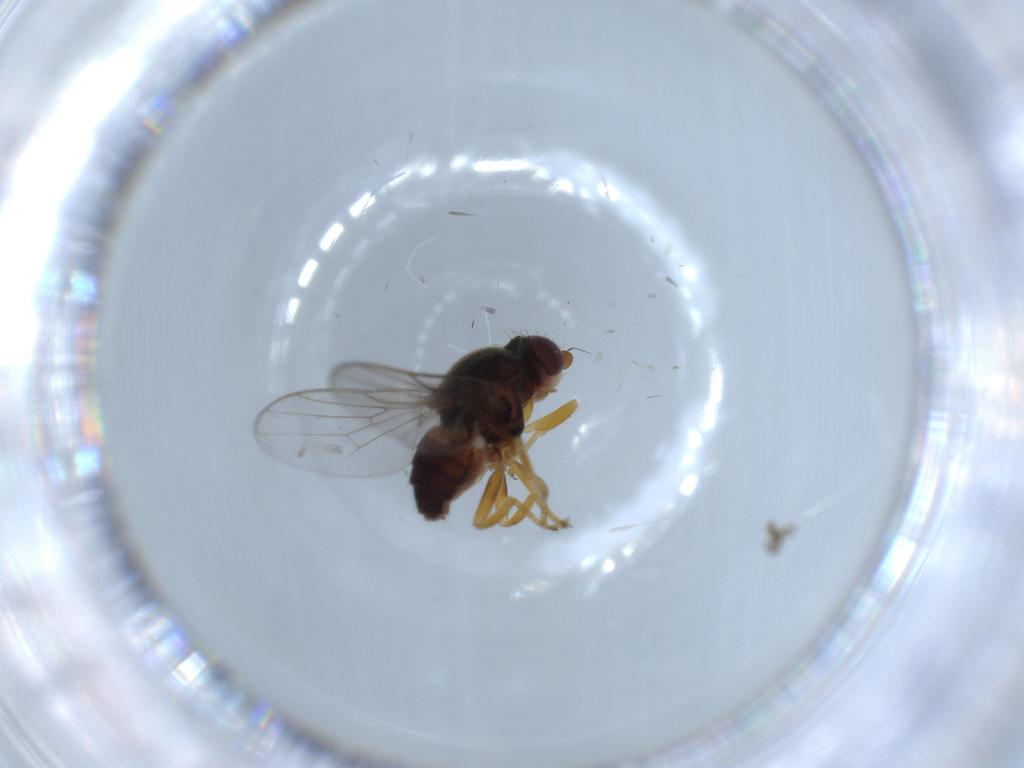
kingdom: Animalia
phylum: Arthropoda
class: Insecta
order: Diptera
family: Chloropidae
